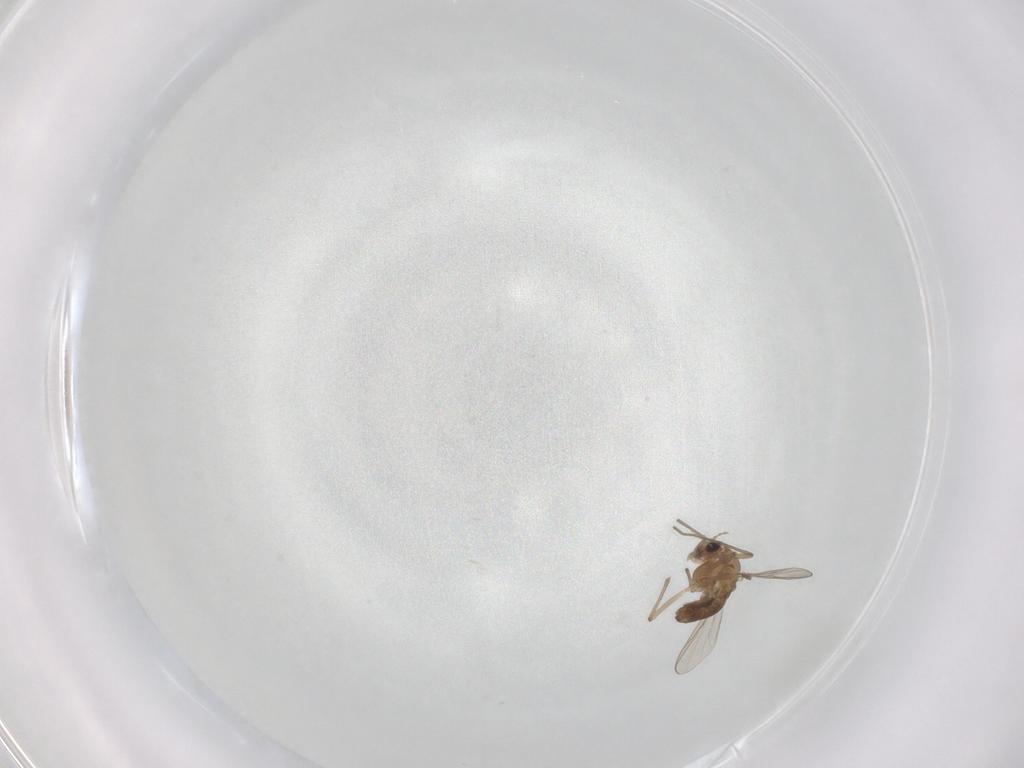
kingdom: Animalia
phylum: Arthropoda
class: Insecta
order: Diptera
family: Chironomidae
